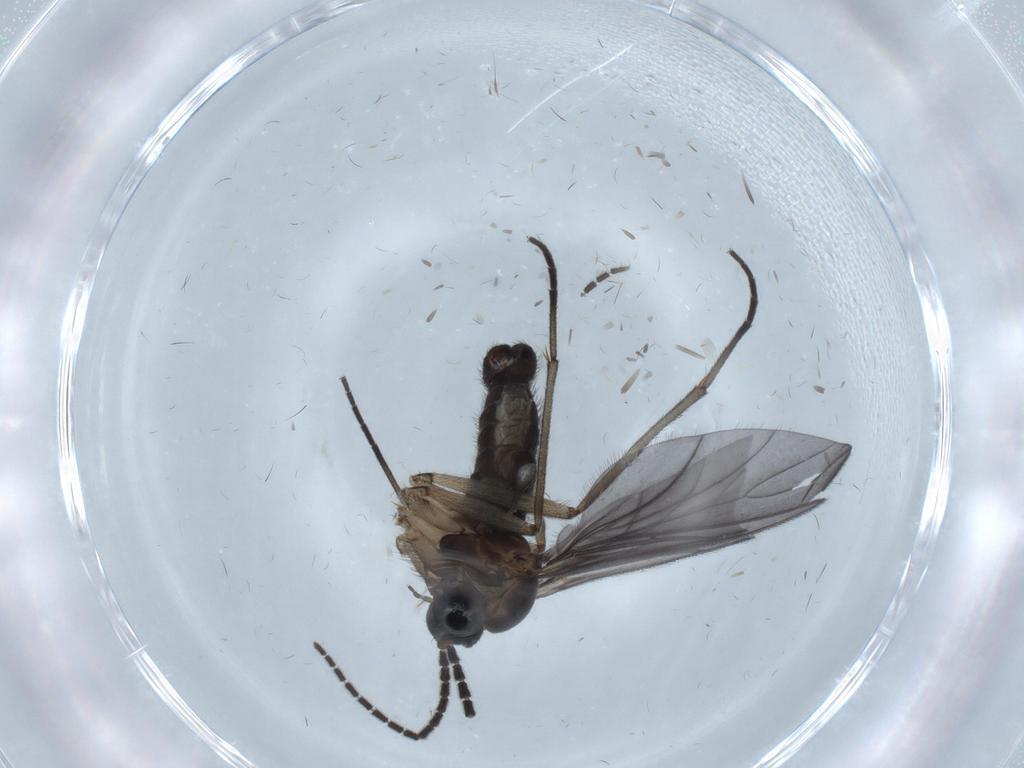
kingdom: Animalia
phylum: Arthropoda
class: Insecta
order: Diptera
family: Sciaridae
